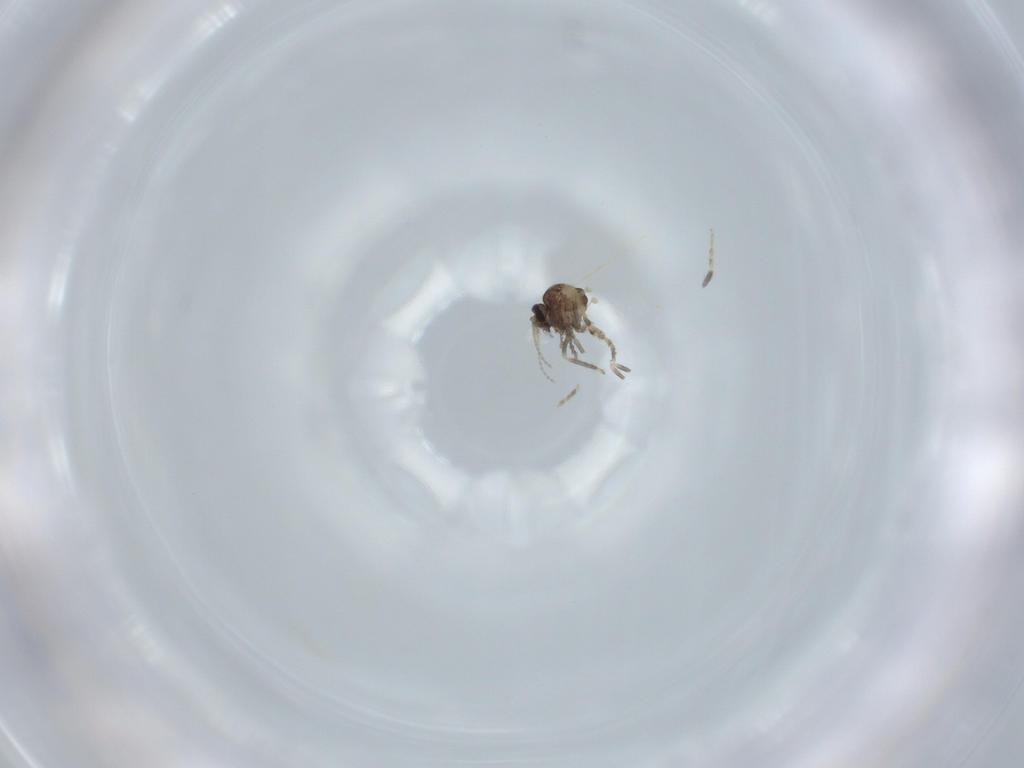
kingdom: Animalia
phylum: Arthropoda
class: Insecta
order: Diptera
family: Ceratopogonidae
